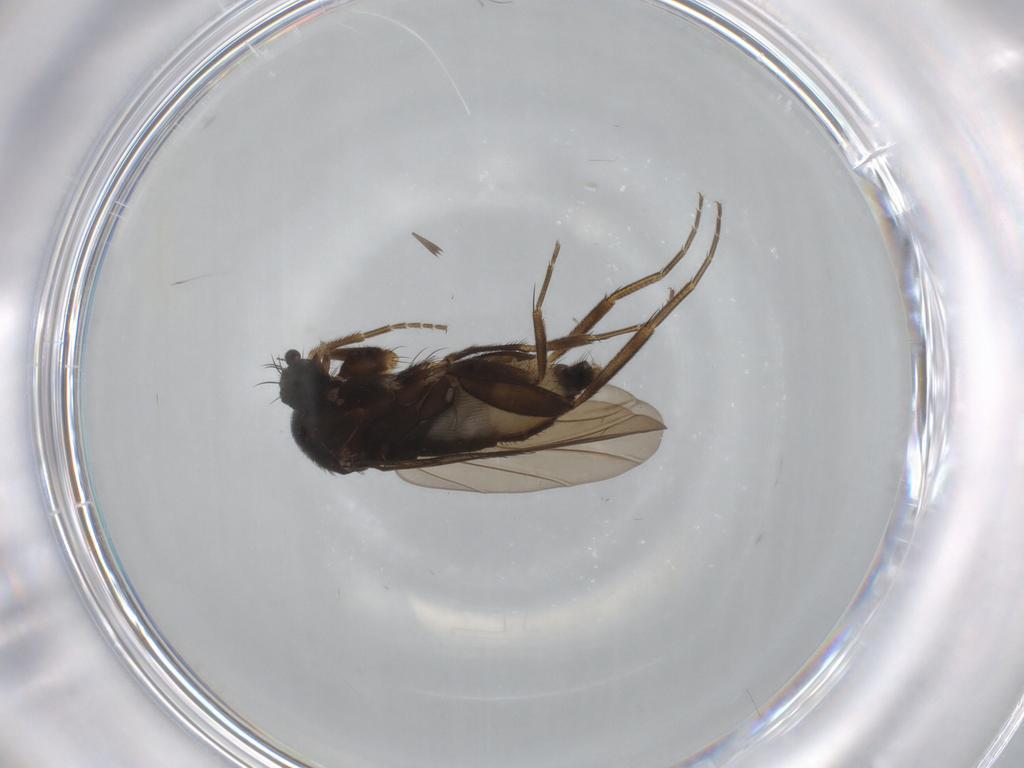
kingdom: Animalia
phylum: Arthropoda
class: Insecta
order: Diptera
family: Phoridae
